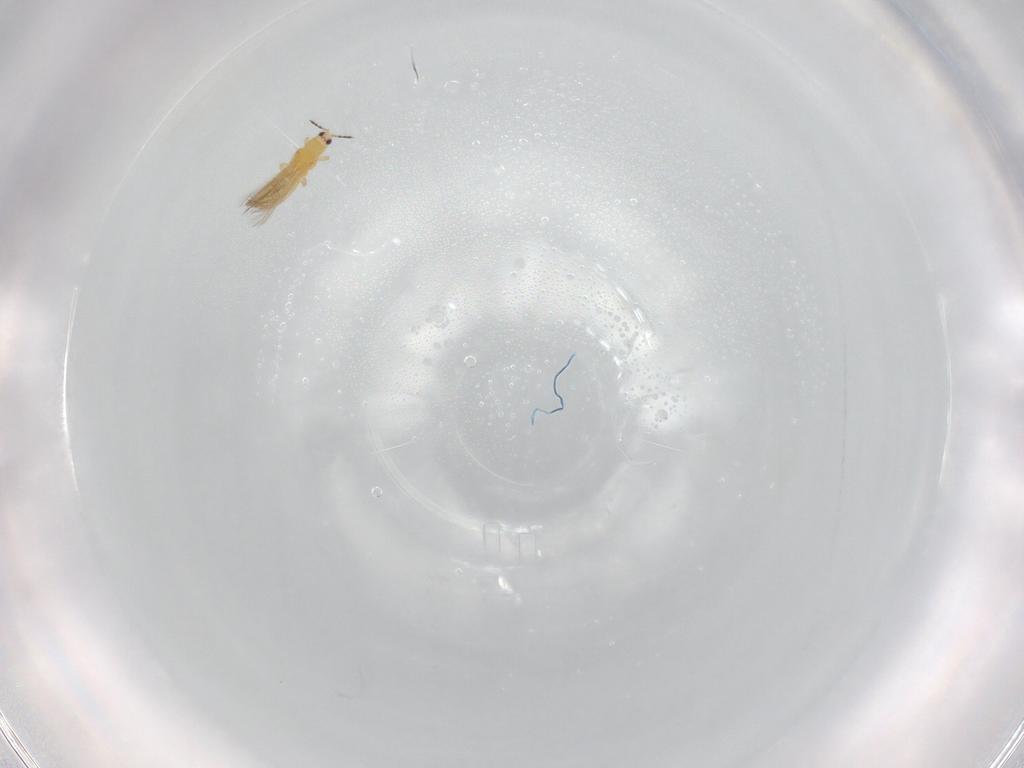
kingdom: Animalia
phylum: Arthropoda
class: Insecta
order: Thysanoptera
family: Thripidae
